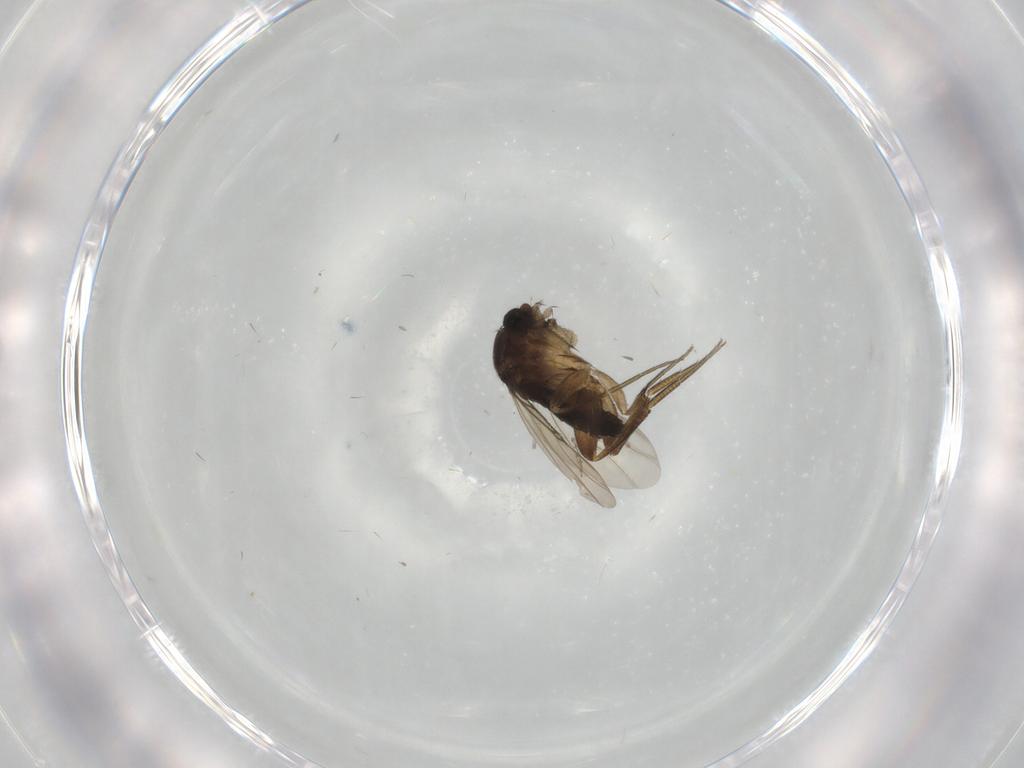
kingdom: Animalia
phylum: Arthropoda
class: Insecta
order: Diptera
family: Phoridae
